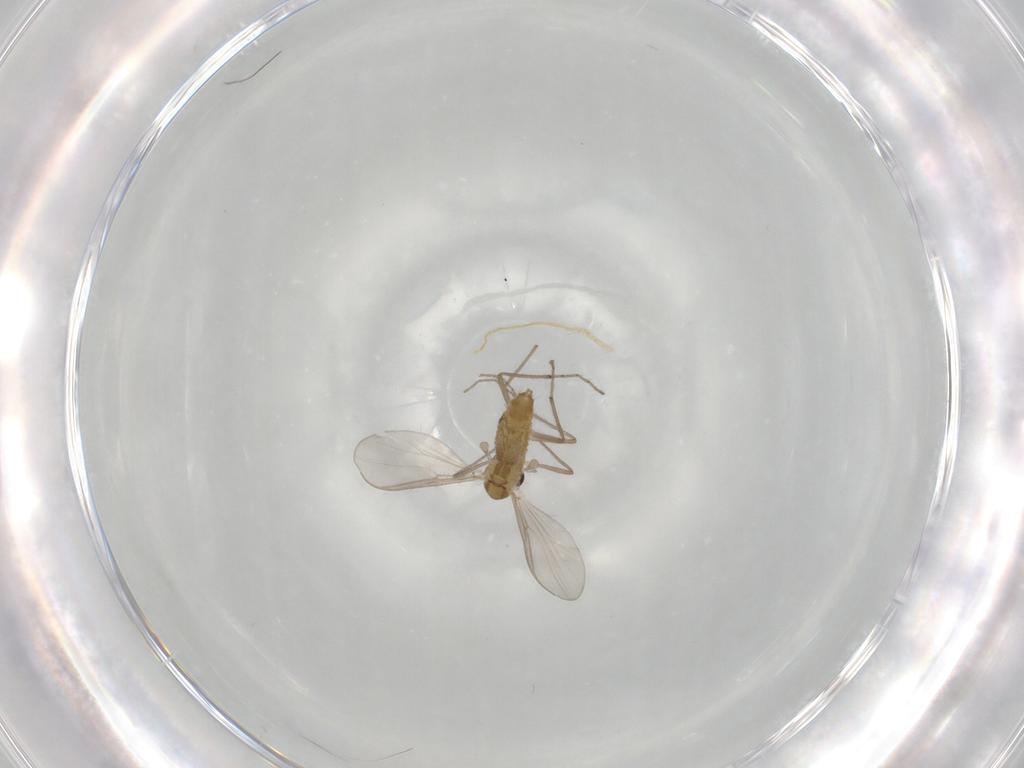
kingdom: Animalia
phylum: Arthropoda
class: Insecta
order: Diptera
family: Chironomidae
